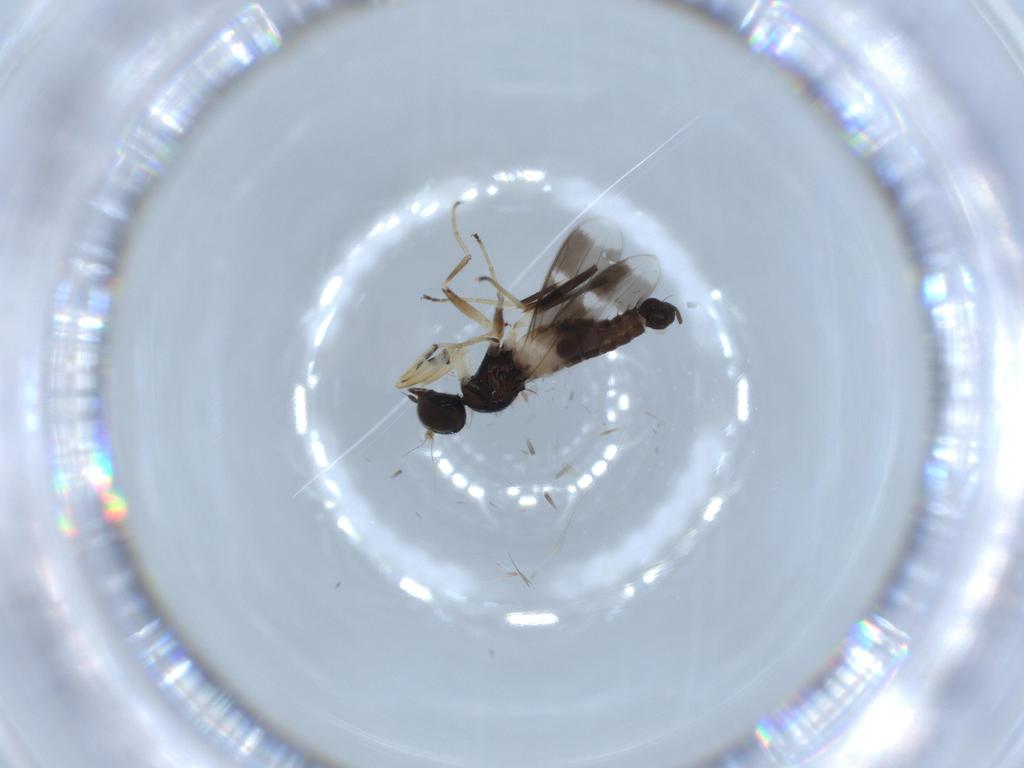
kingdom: Animalia
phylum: Arthropoda
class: Insecta
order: Diptera
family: Hybotidae
